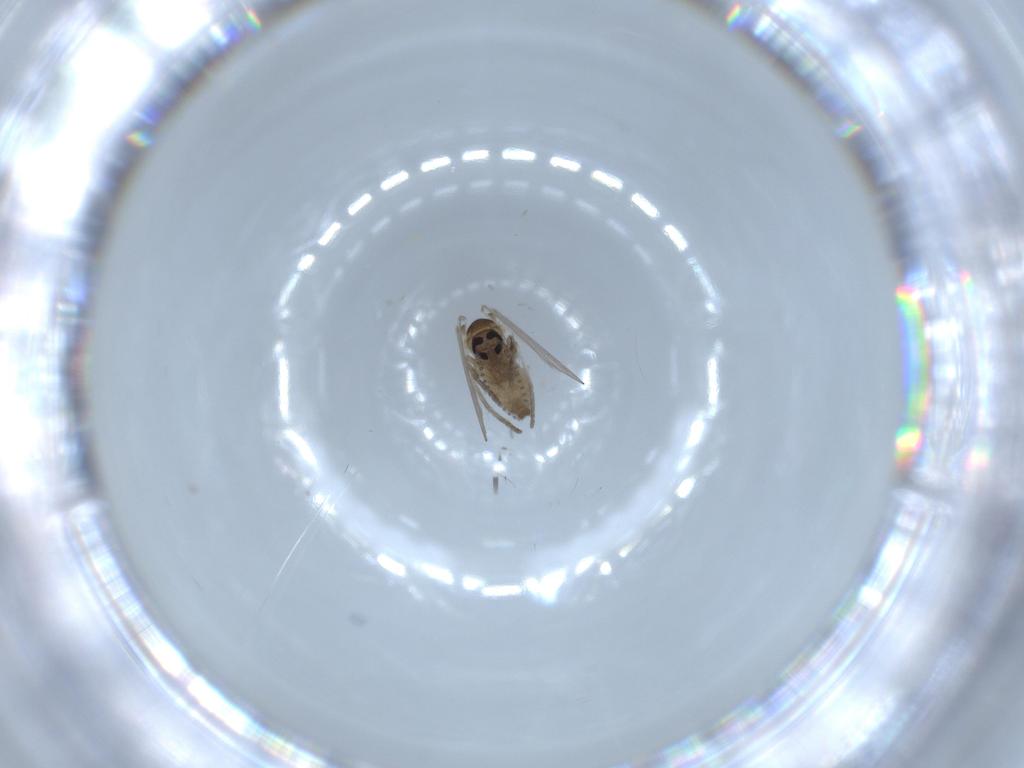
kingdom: Animalia
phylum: Arthropoda
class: Insecta
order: Diptera
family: Psychodidae
